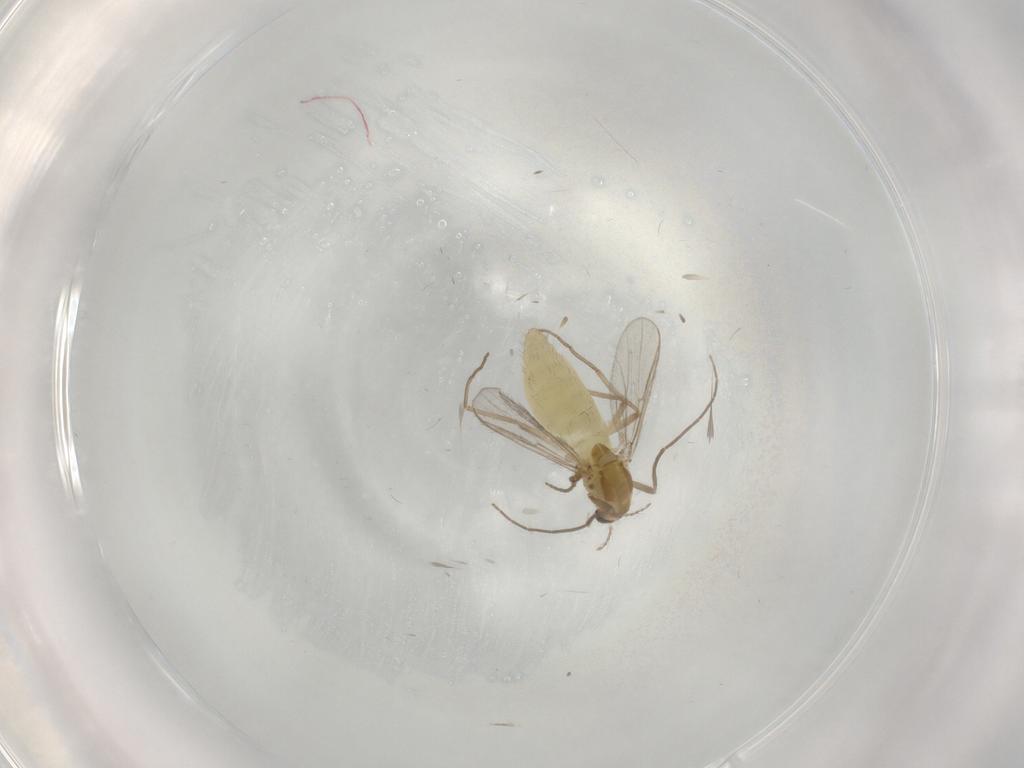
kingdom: Animalia
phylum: Arthropoda
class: Insecta
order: Diptera
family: Chironomidae
